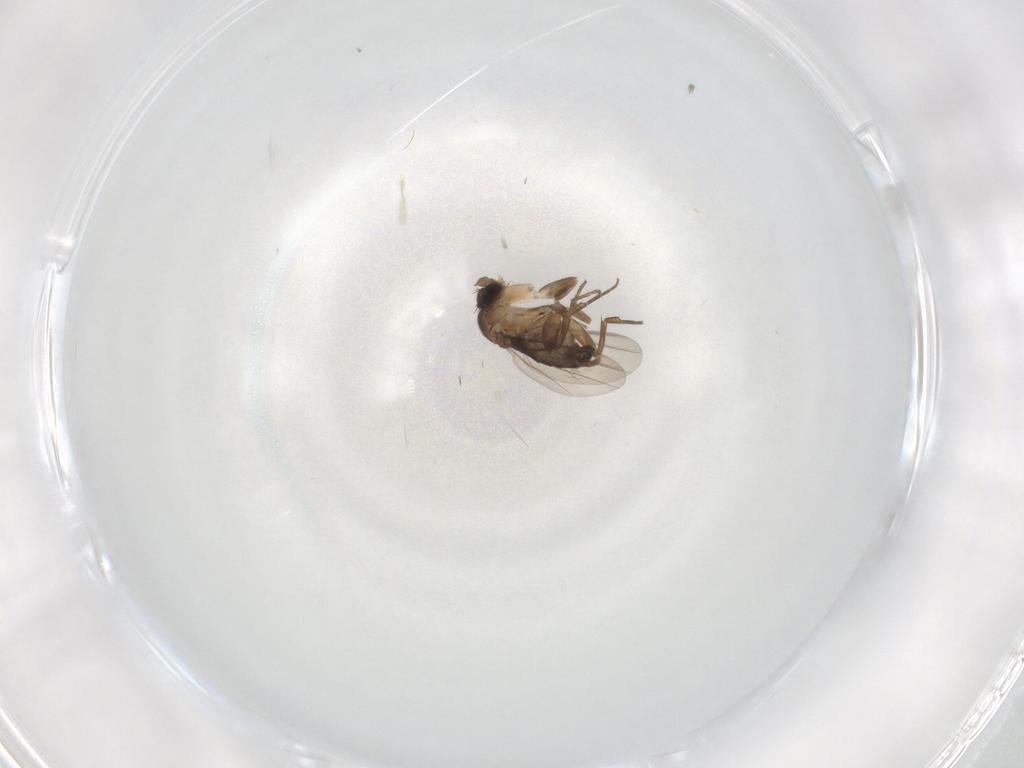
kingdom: Animalia
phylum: Arthropoda
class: Insecta
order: Diptera
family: Cecidomyiidae
